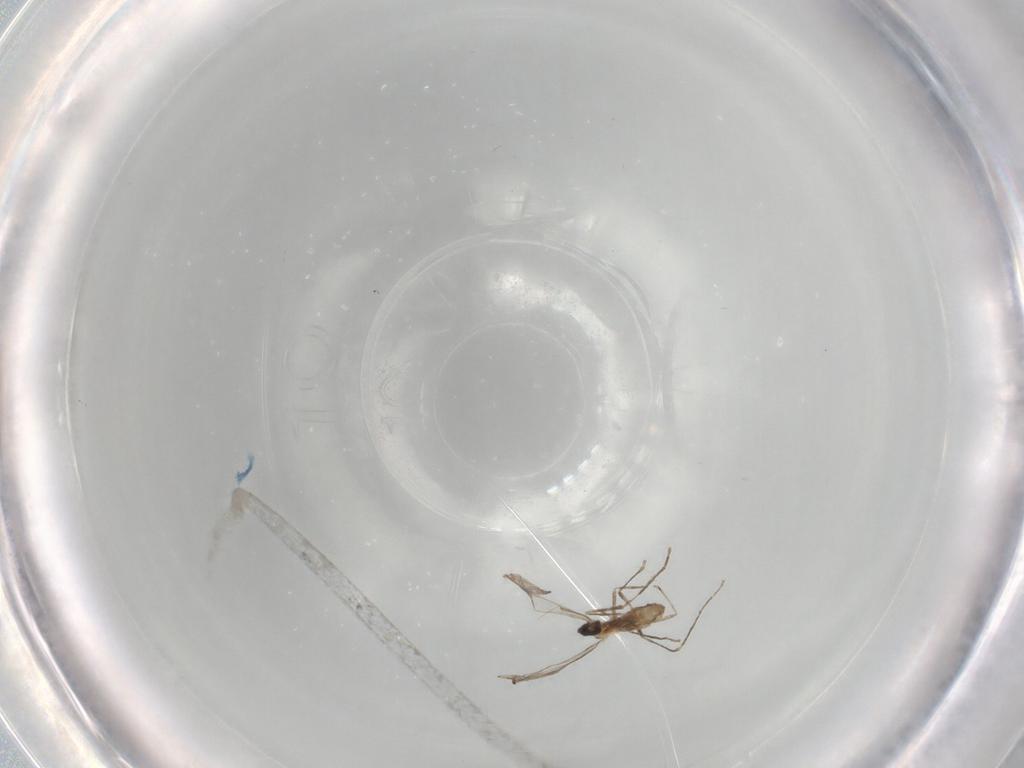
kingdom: Animalia
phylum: Arthropoda
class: Insecta
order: Diptera
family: Chironomidae
